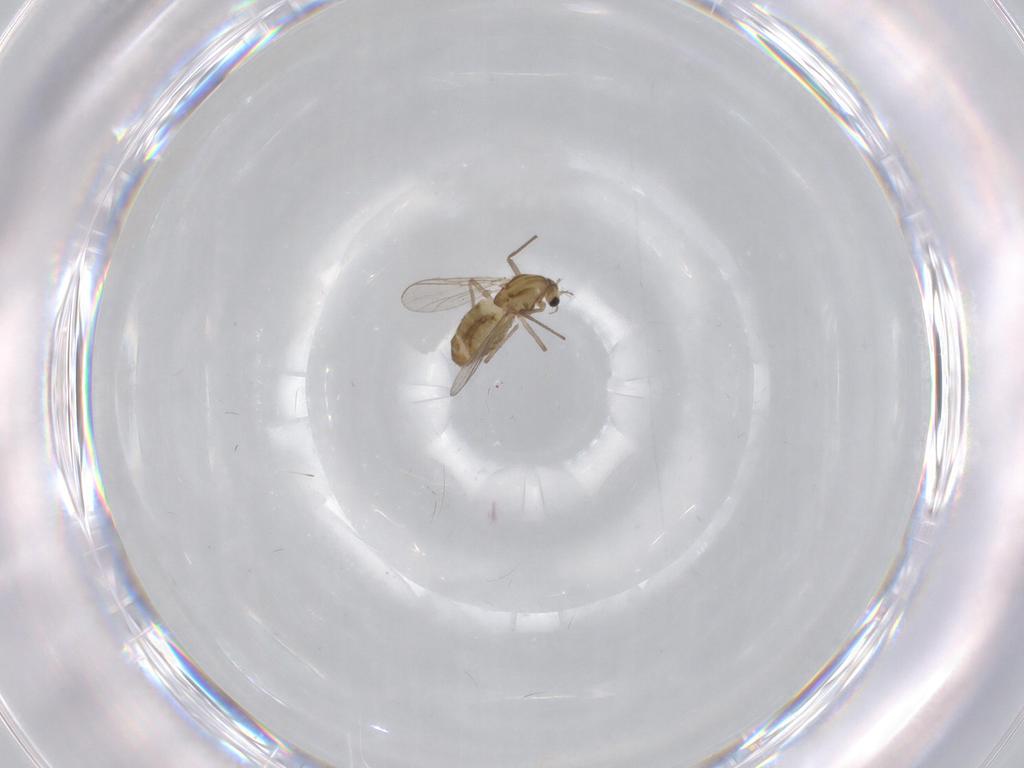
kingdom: Animalia
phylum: Arthropoda
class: Insecta
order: Diptera
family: Chironomidae
